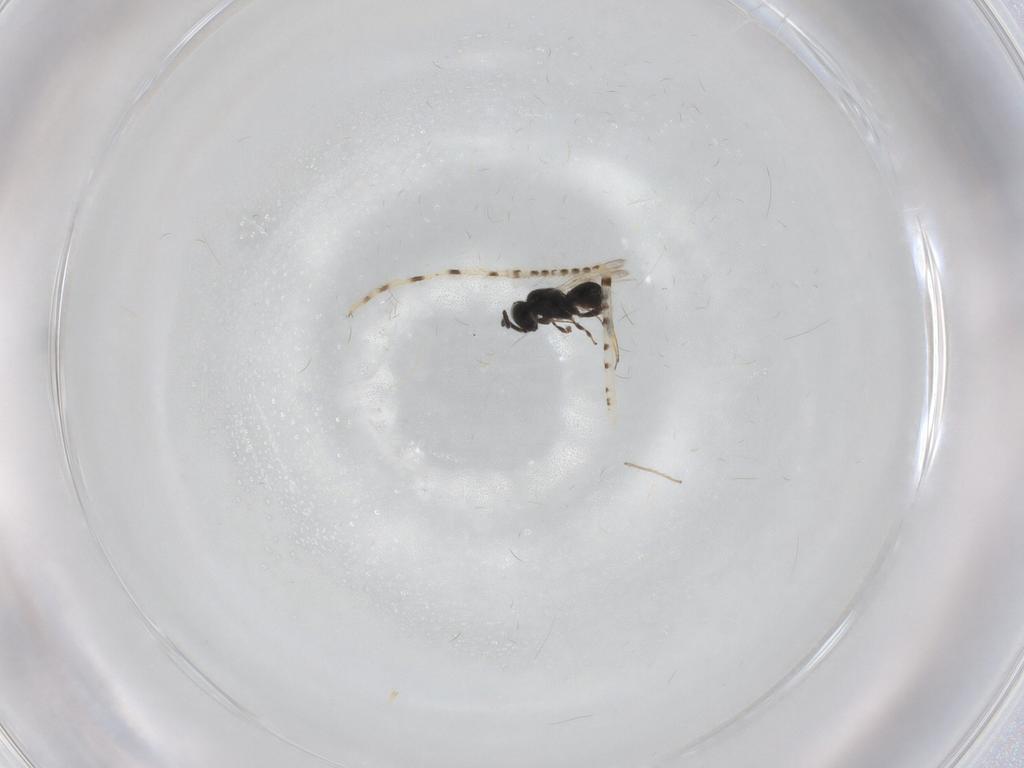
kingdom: Animalia
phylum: Arthropoda
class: Insecta
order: Hymenoptera
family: Scelionidae
